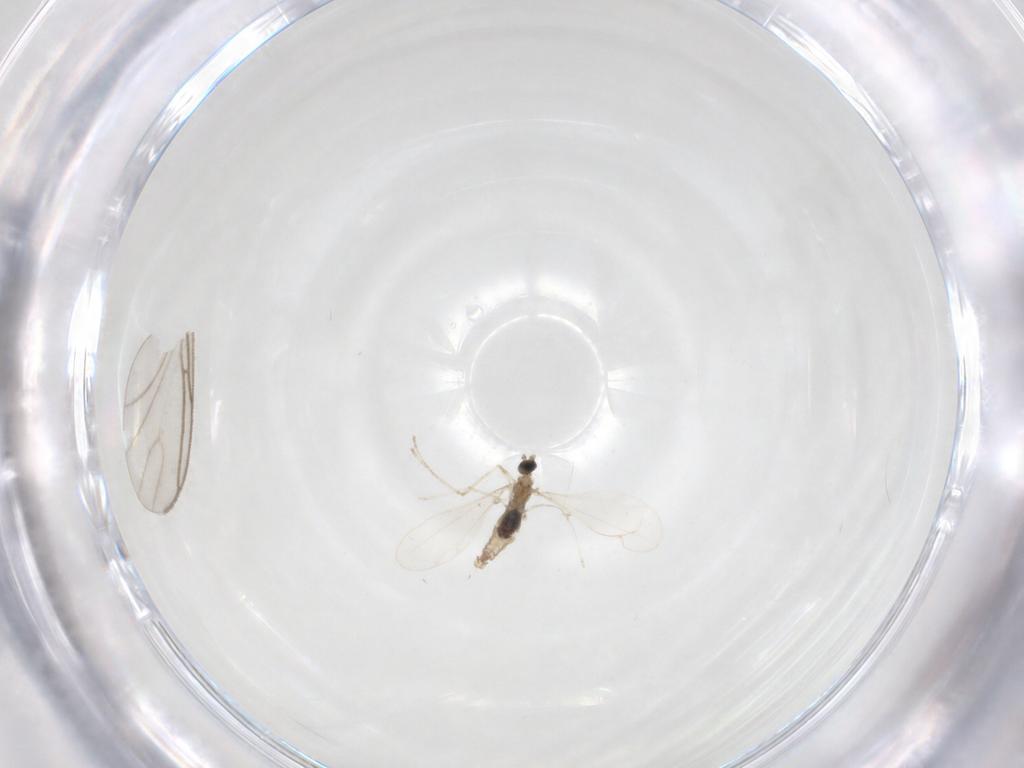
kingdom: Animalia
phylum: Arthropoda
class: Insecta
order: Diptera
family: Cecidomyiidae
